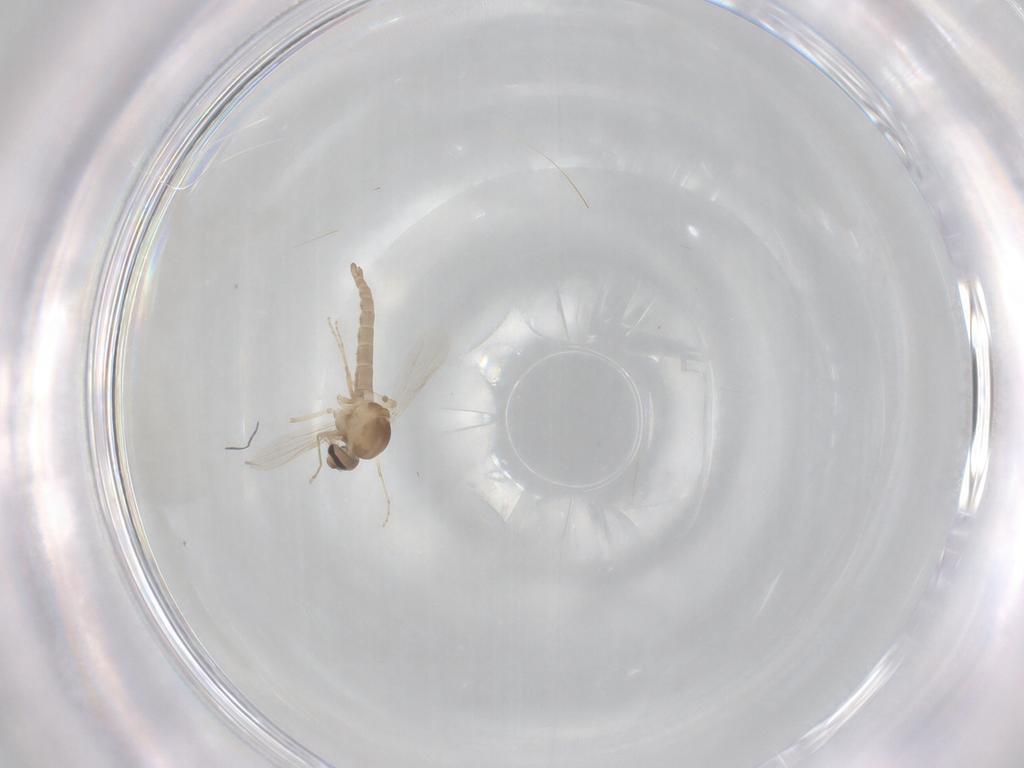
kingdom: Animalia
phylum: Arthropoda
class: Insecta
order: Diptera
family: Ceratopogonidae
